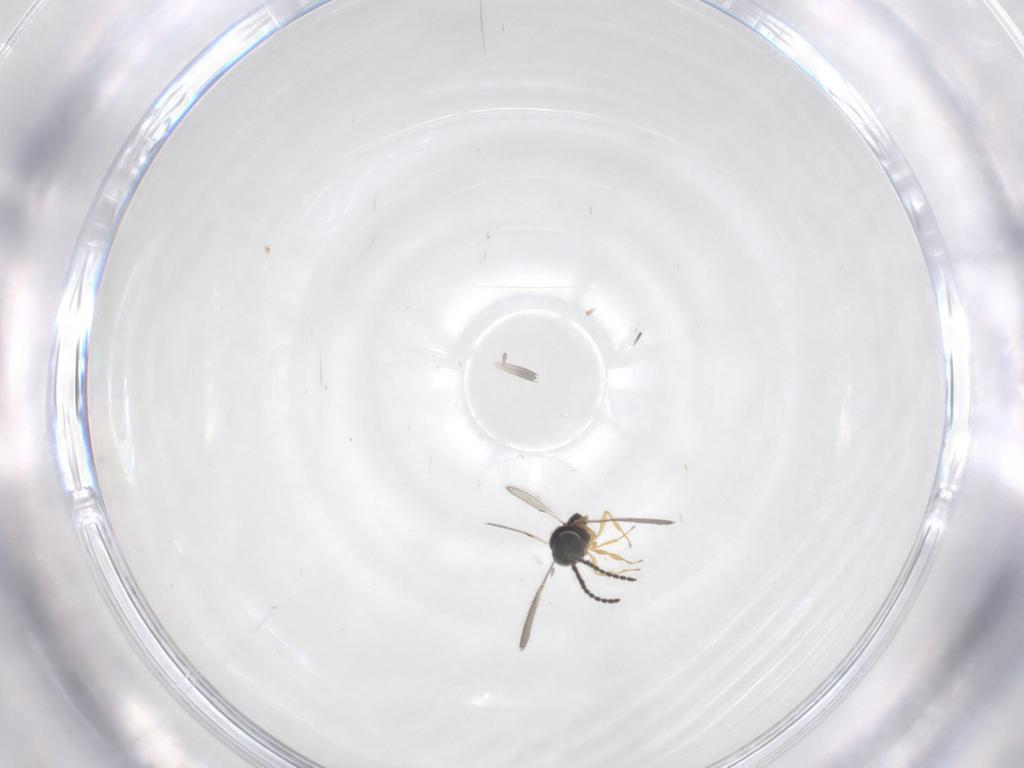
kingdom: Animalia
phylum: Arthropoda
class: Insecta
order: Hymenoptera
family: Scelionidae
